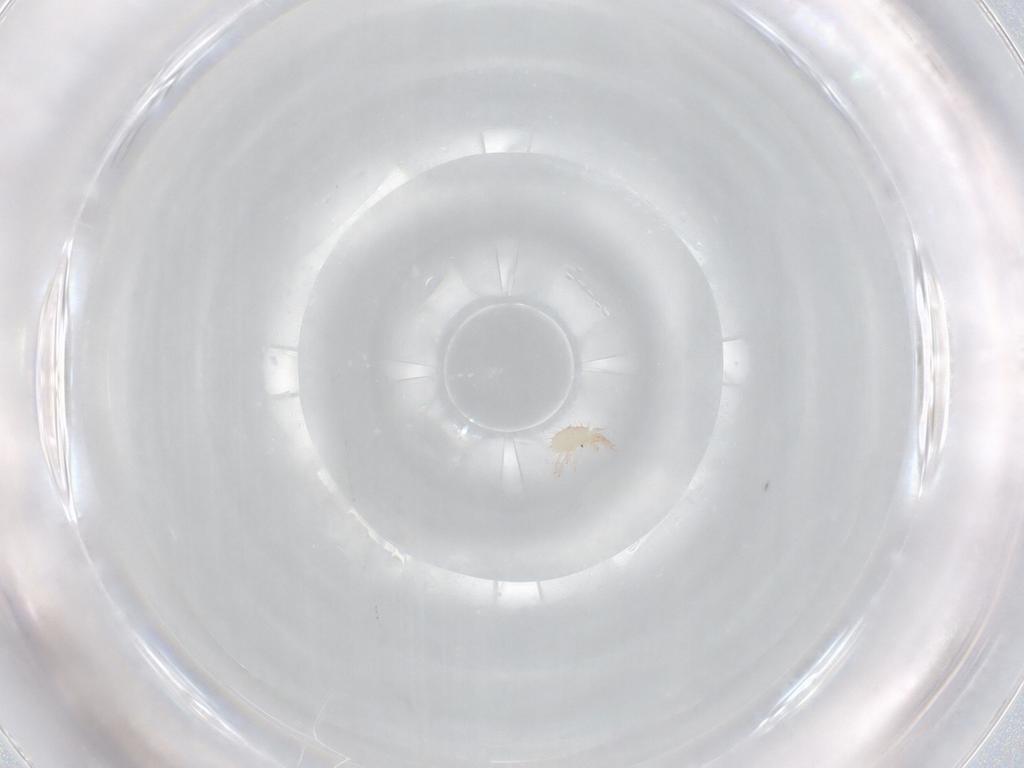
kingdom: Animalia
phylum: Arthropoda
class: Arachnida
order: Trombidiformes
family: Stigmaeidae
